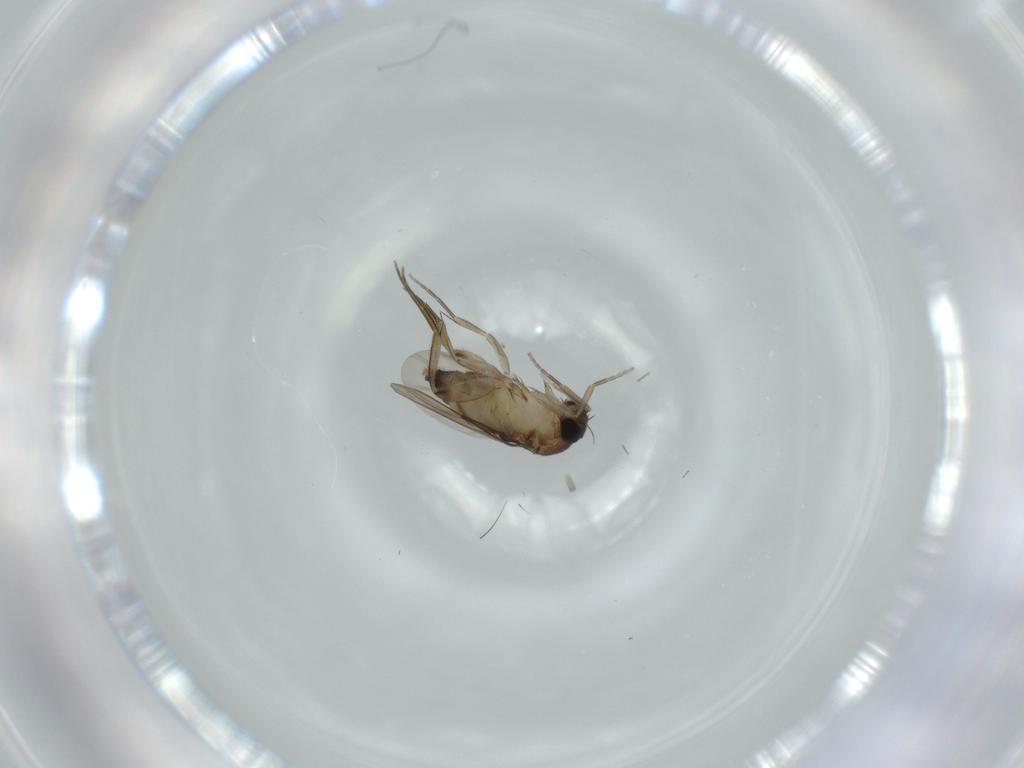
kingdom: Animalia
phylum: Arthropoda
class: Insecta
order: Diptera
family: Phoridae
